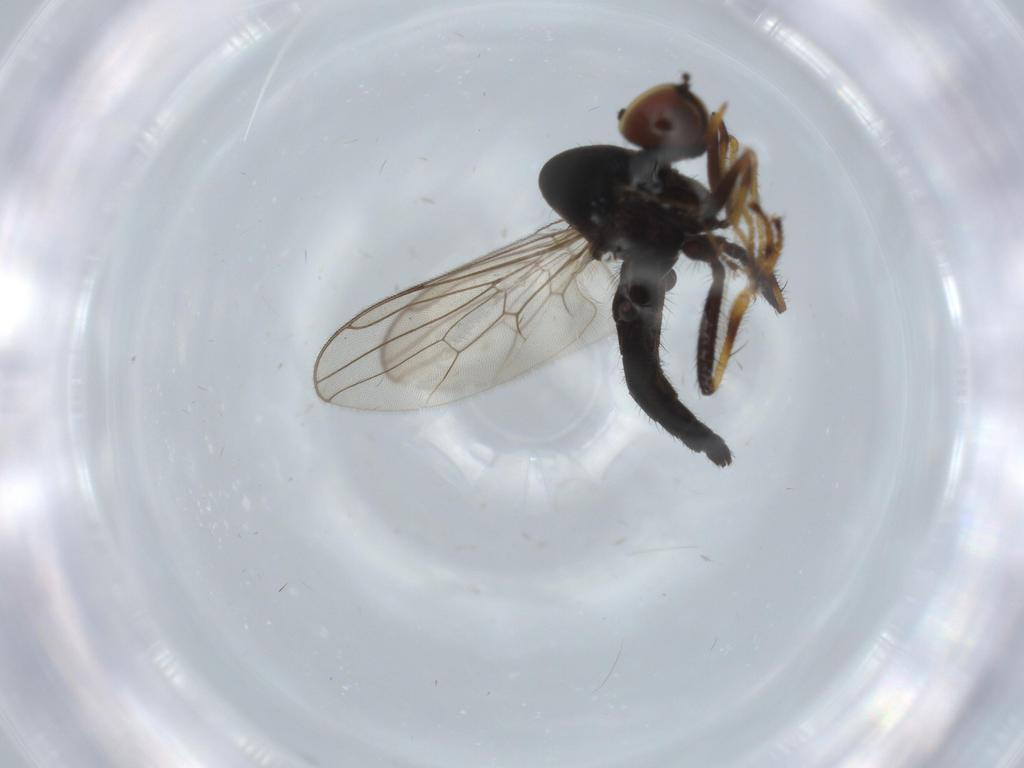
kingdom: Animalia
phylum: Arthropoda
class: Insecta
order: Diptera
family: Hybotidae
